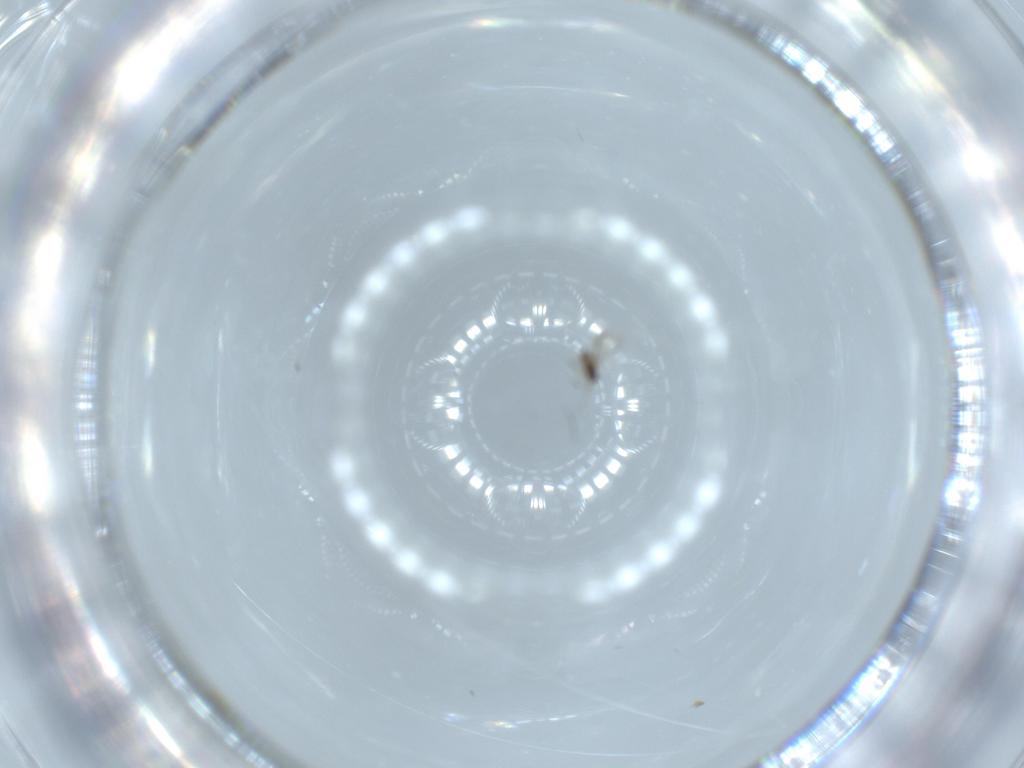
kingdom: Animalia
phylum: Arthropoda
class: Insecta
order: Diptera
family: Chironomidae
